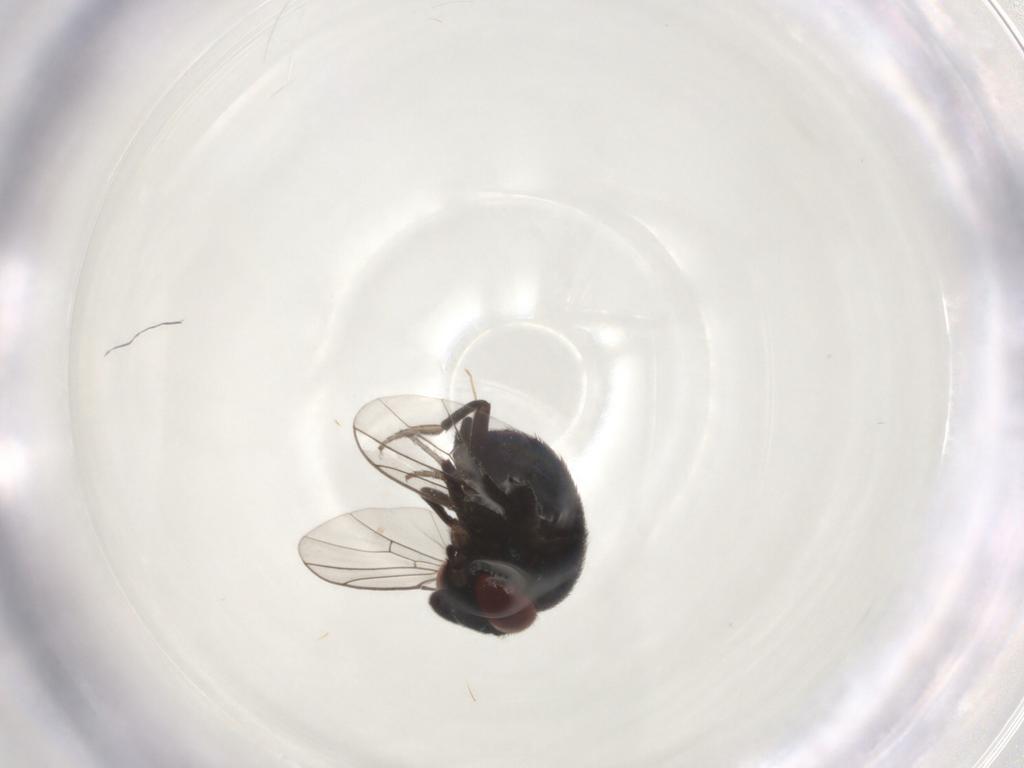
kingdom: Animalia
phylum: Arthropoda
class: Insecta
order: Diptera
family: Cryptochetidae
